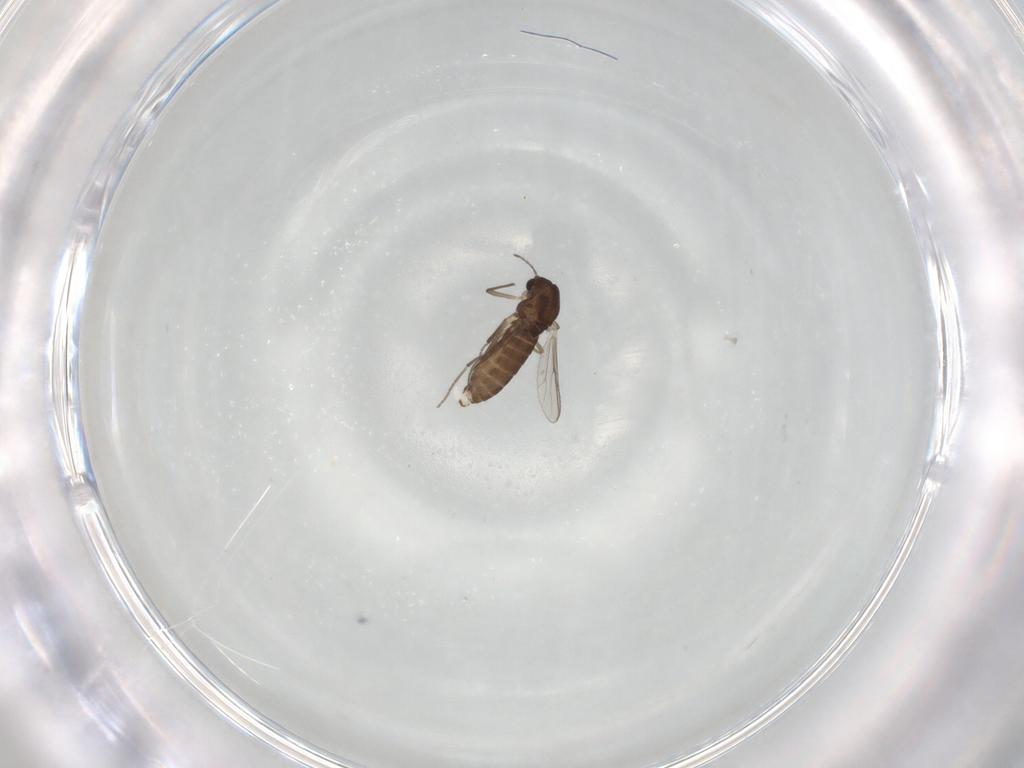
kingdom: Animalia
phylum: Arthropoda
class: Insecta
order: Diptera
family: Chironomidae
